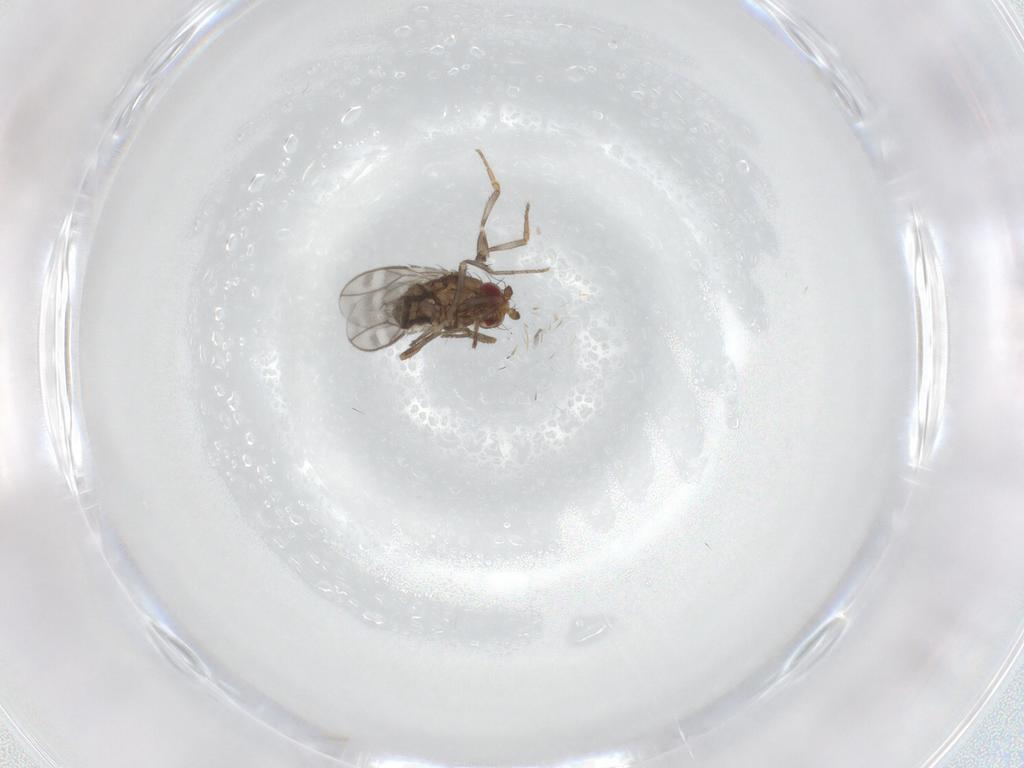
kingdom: Animalia
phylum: Arthropoda
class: Insecta
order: Diptera
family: Sphaeroceridae
